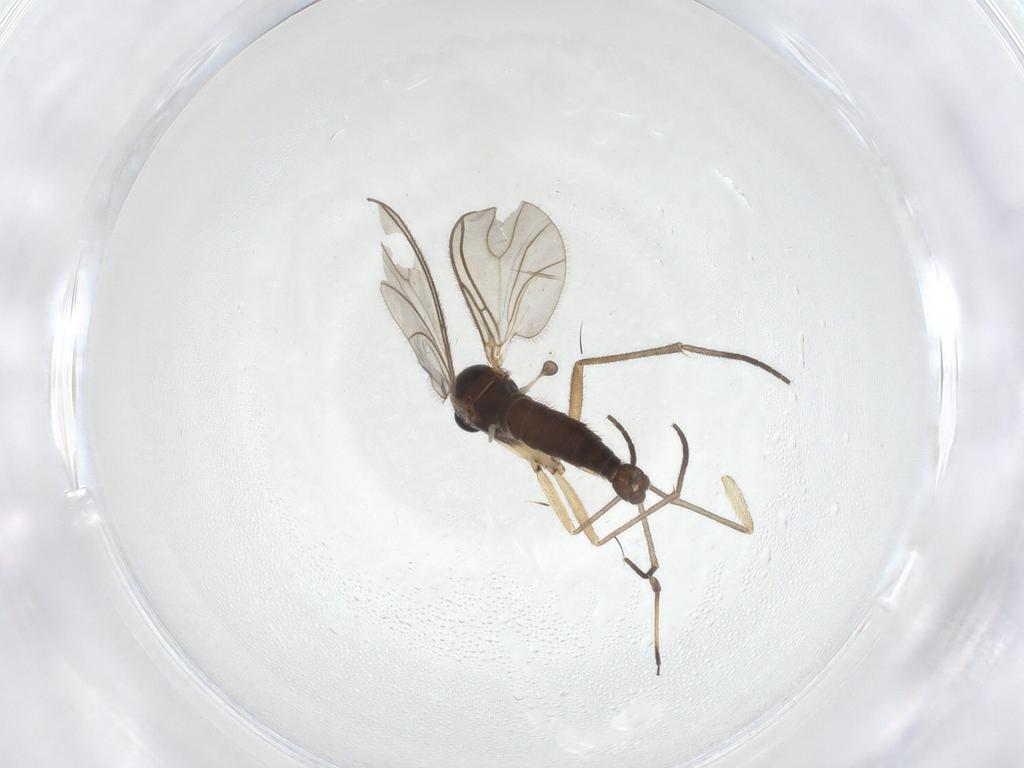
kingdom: Animalia
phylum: Arthropoda
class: Insecta
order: Diptera
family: Sciaridae
